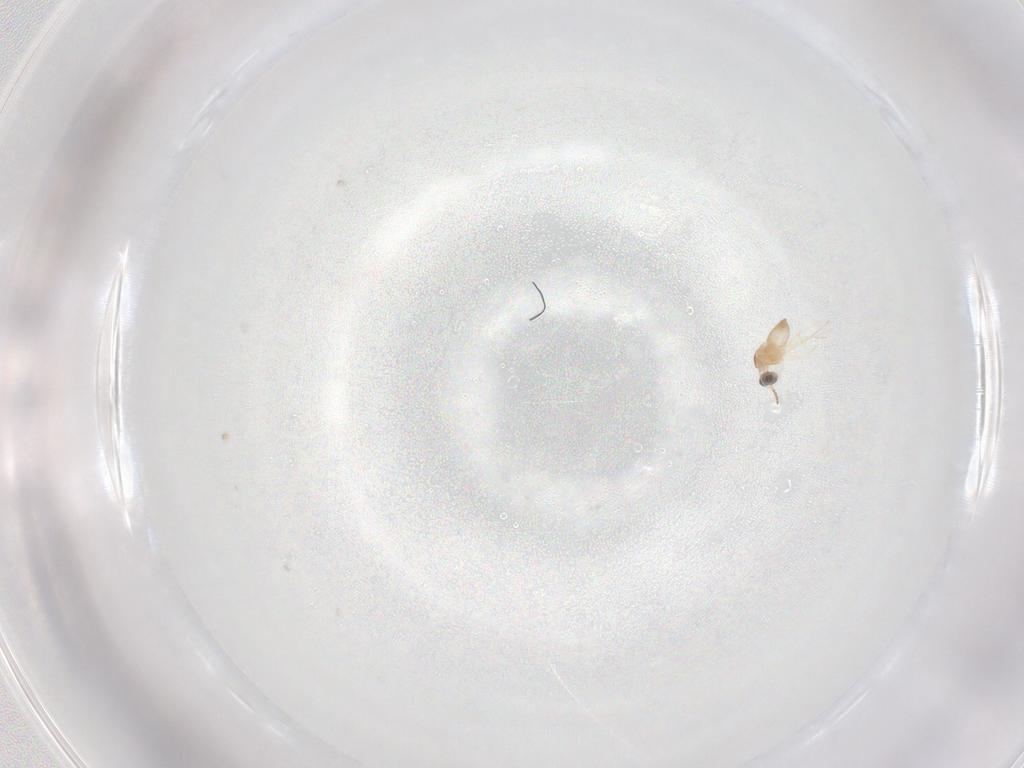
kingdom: Animalia
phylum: Arthropoda
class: Insecta
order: Diptera
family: Cecidomyiidae
